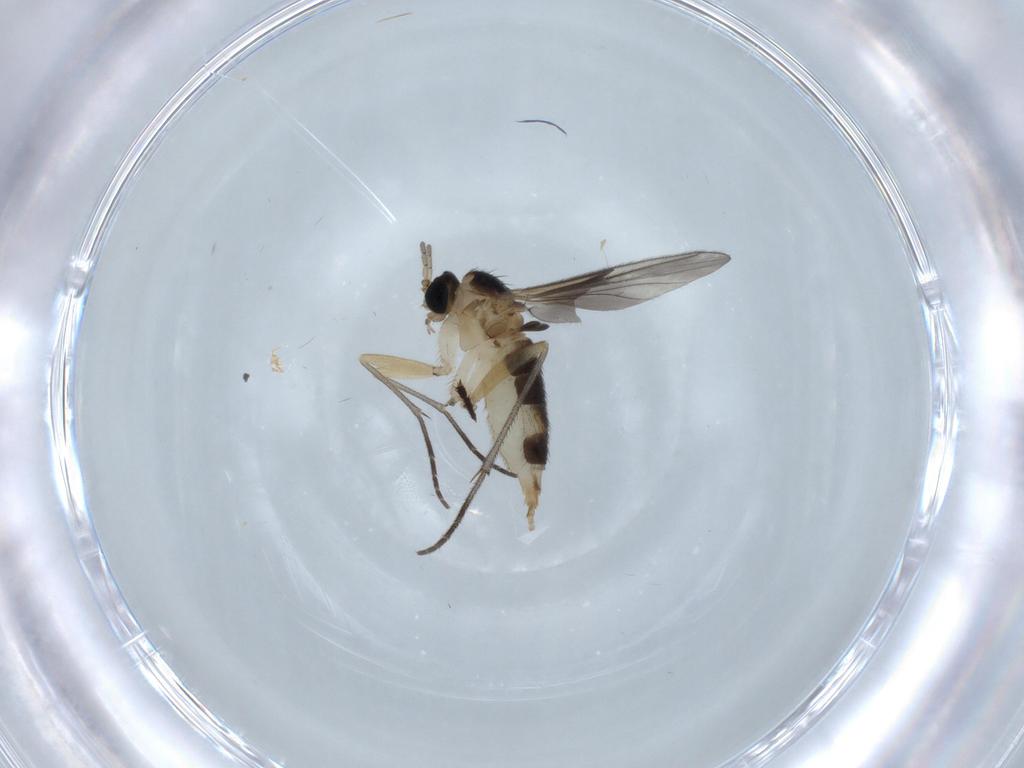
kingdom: Animalia
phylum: Arthropoda
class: Insecta
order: Diptera
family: Sciaridae
